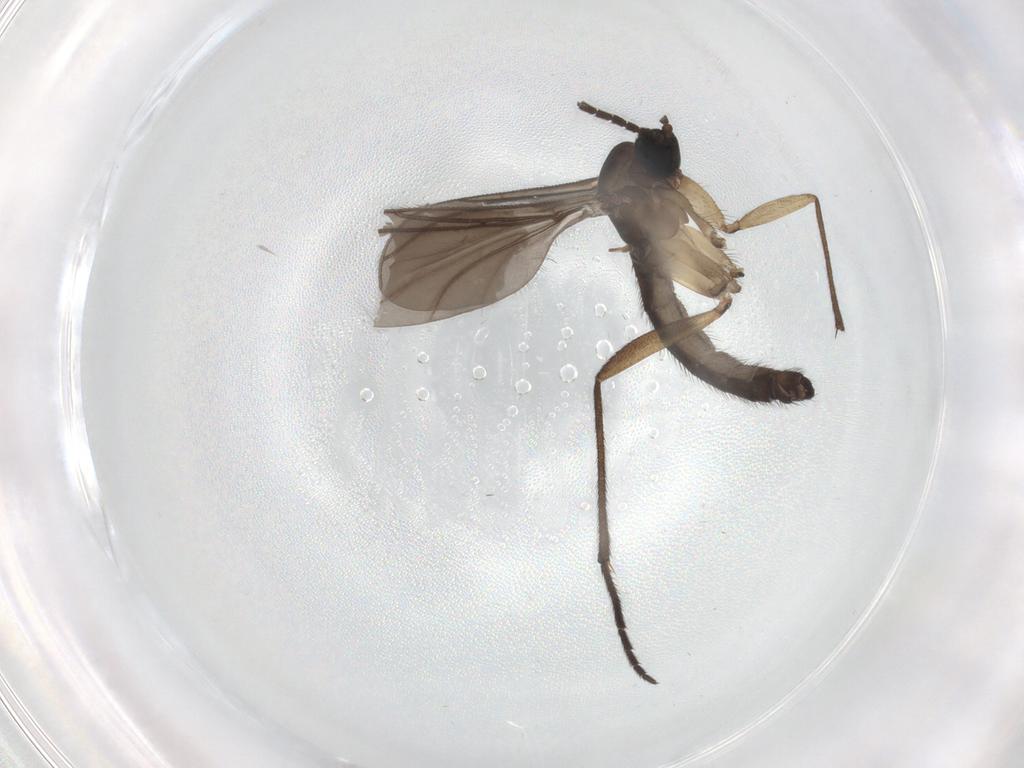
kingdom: Animalia
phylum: Arthropoda
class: Insecta
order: Diptera
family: Sciaridae
